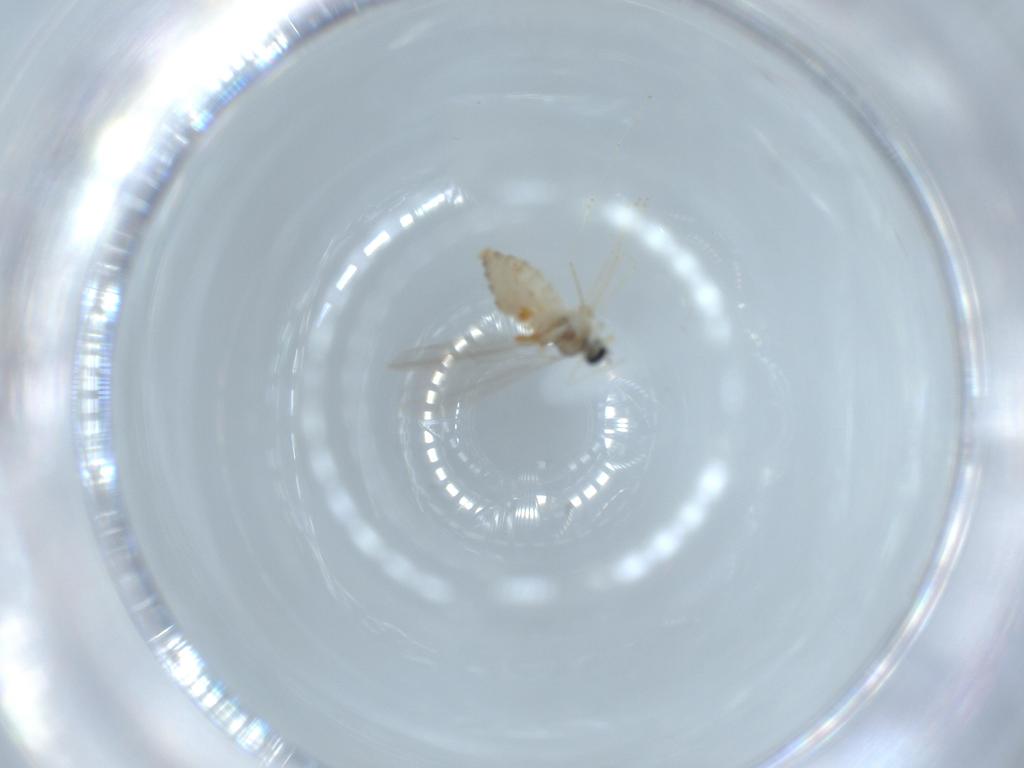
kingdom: Animalia
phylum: Arthropoda
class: Insecta
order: Diptera
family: Cecidomyiidae
